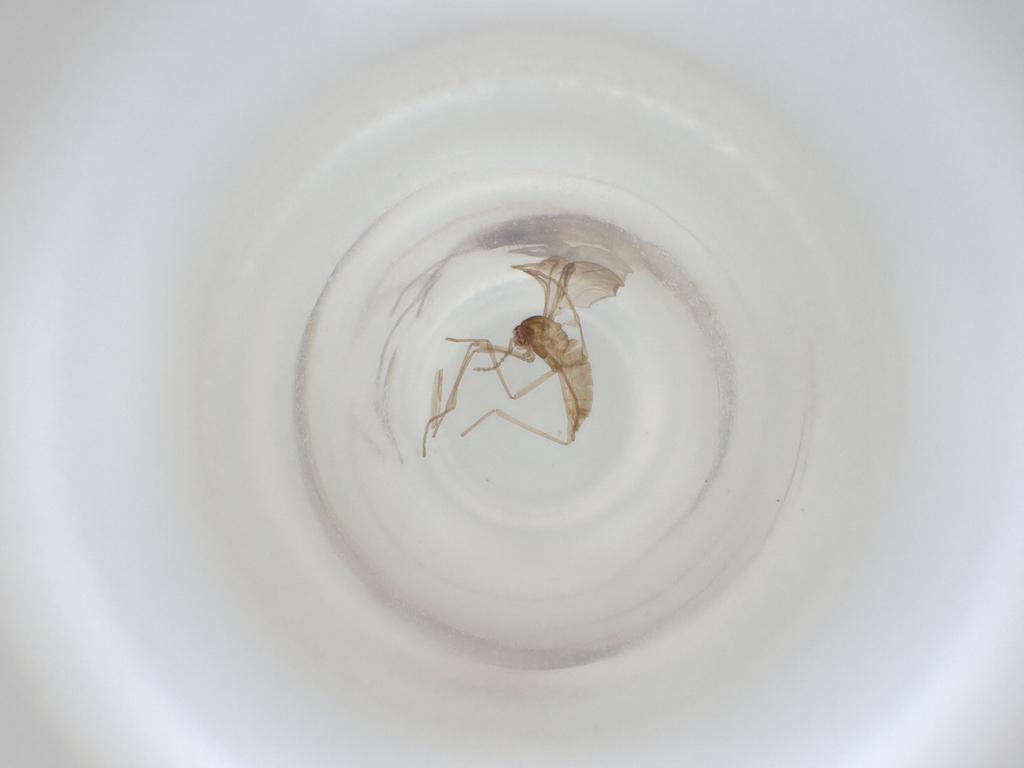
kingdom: Animalia
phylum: Arthropoda
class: Insecta
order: Diptera
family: Cecidomyiidae
